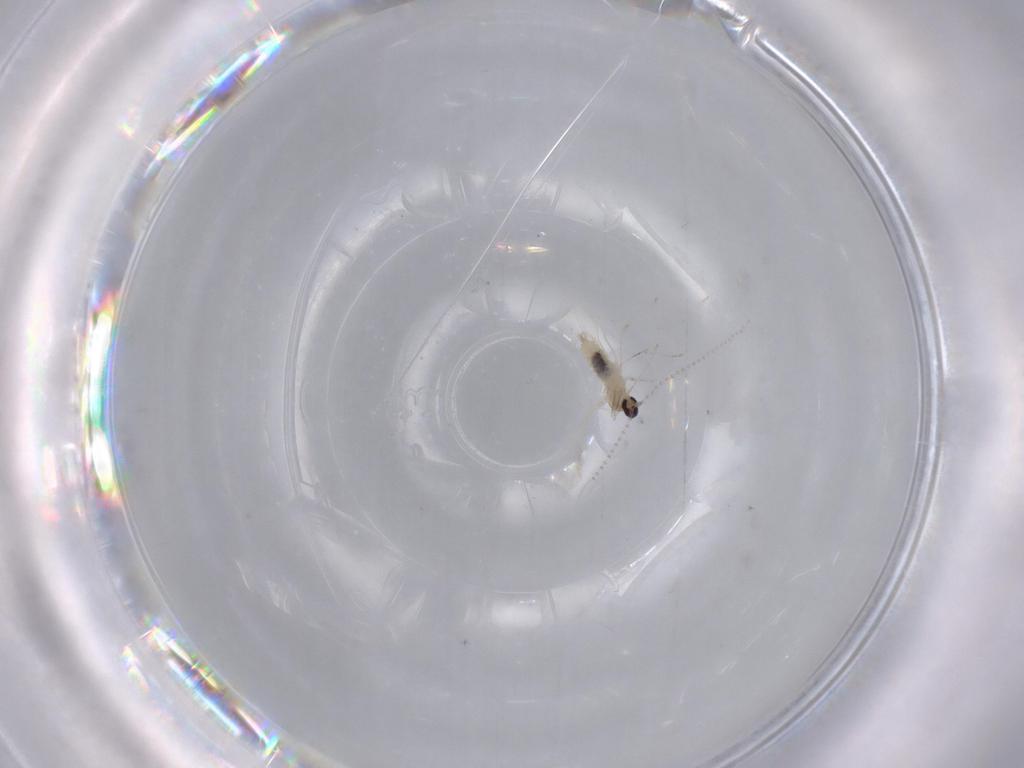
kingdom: Animalia
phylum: Arthropoda
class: Insecta
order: Diptera
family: Cecidomyiidae
